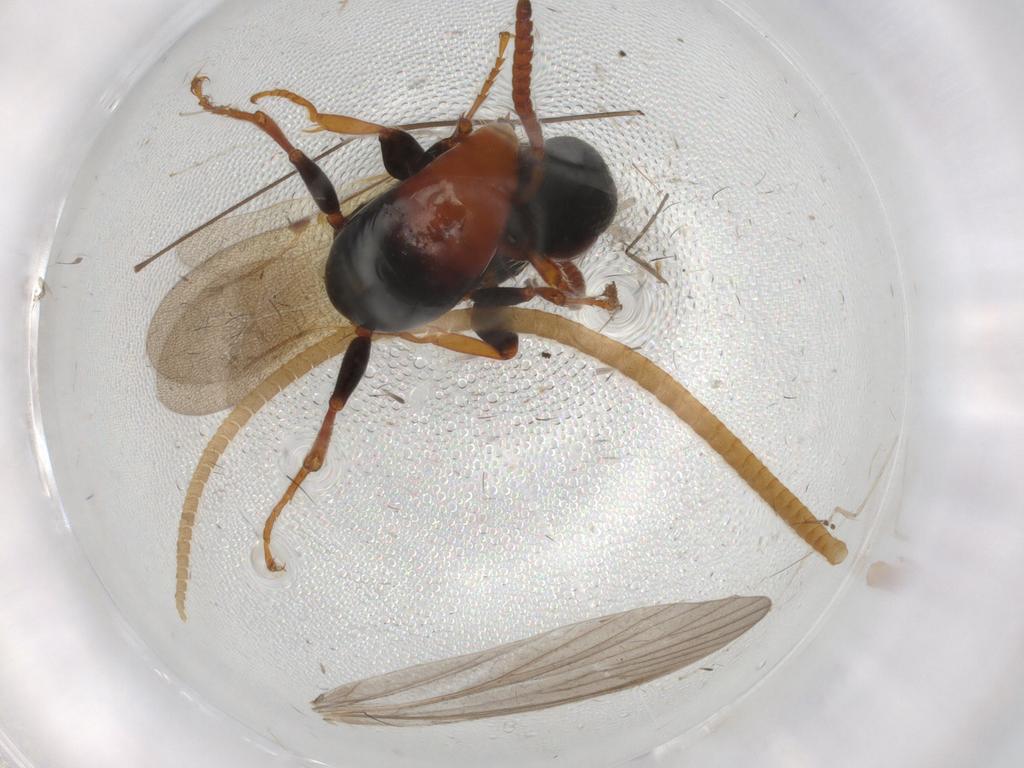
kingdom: Animalia
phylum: Arthropoda
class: Insecta
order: Hymenoptera
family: Bethylidae
